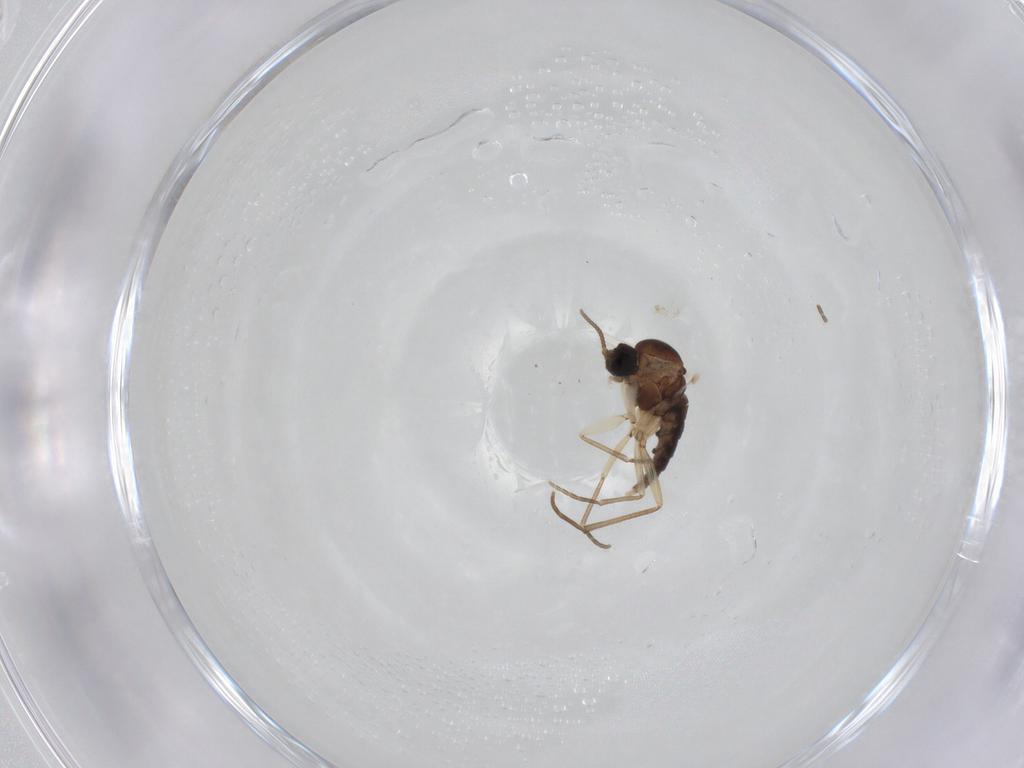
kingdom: Animalia
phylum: Arthropoda
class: Insecta
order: Diptera
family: Sciaridae
